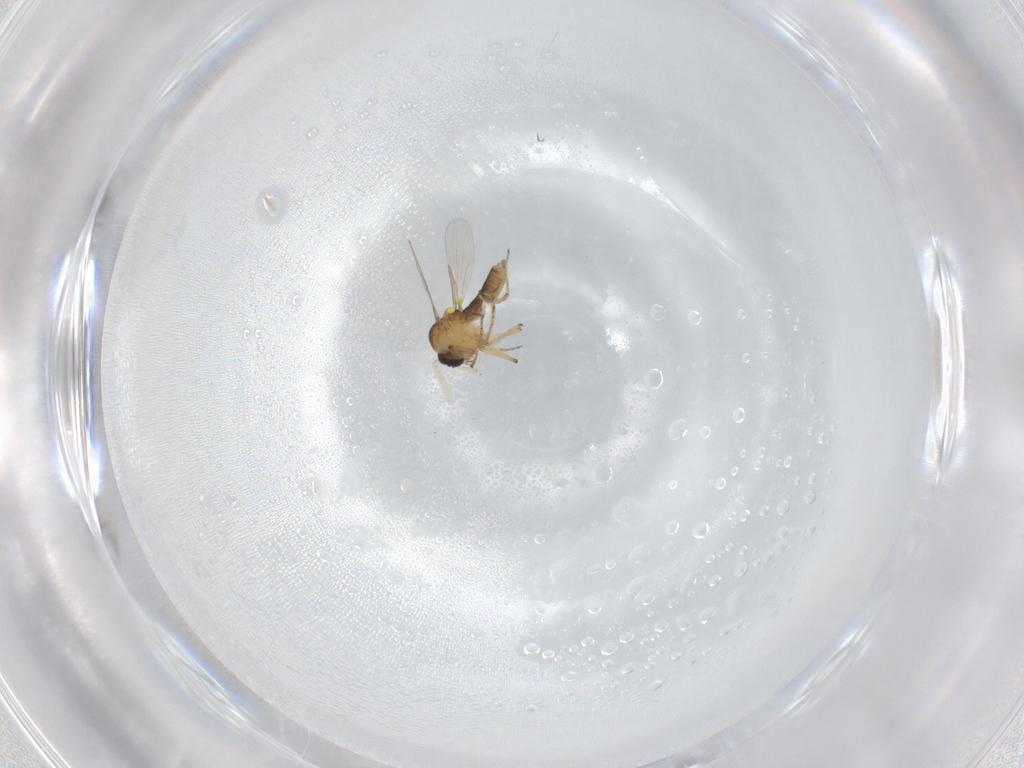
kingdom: Animalia
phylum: Arthropoda
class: Insecta
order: Diptera
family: Chironomidae
